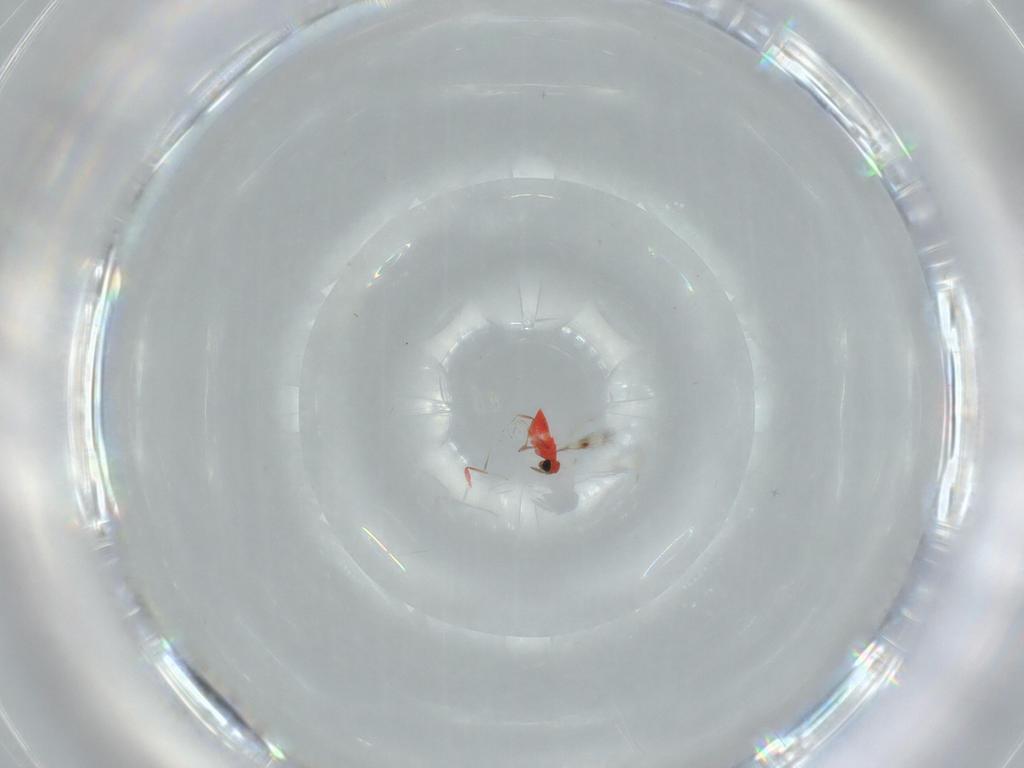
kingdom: Animalia
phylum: Arthropoda
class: Insecta
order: Hymenoptera
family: Trichogrammatidae
